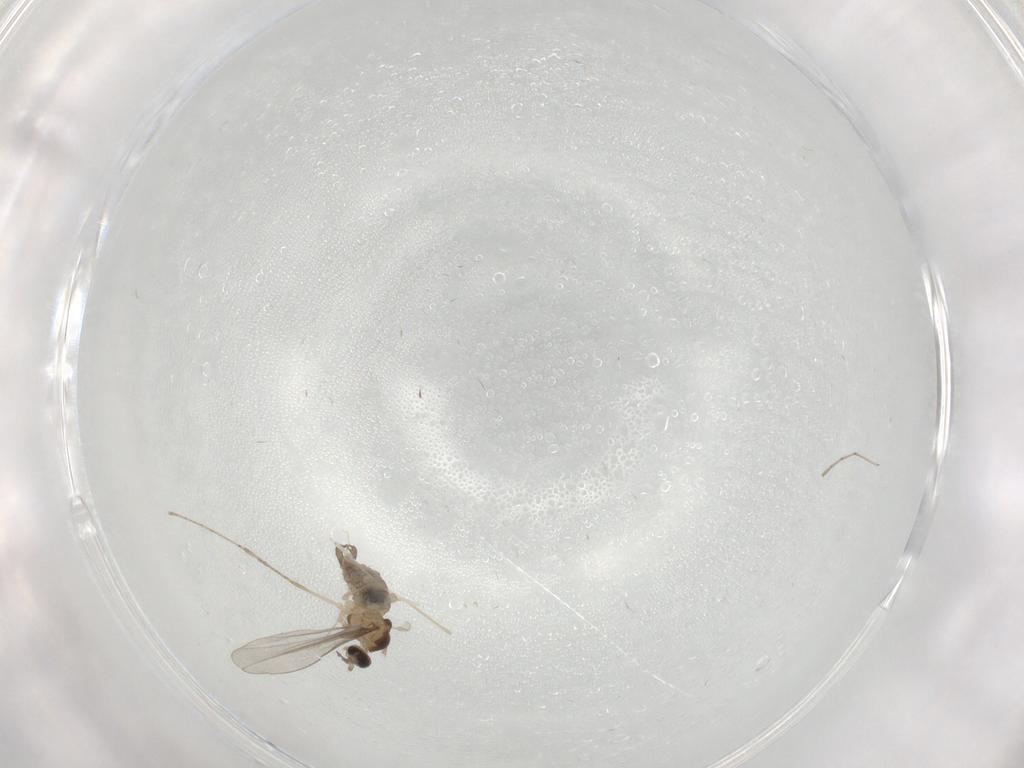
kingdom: Animalia
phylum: Arthropoda
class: Insecta
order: Diptera
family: Cecidomyiidae
